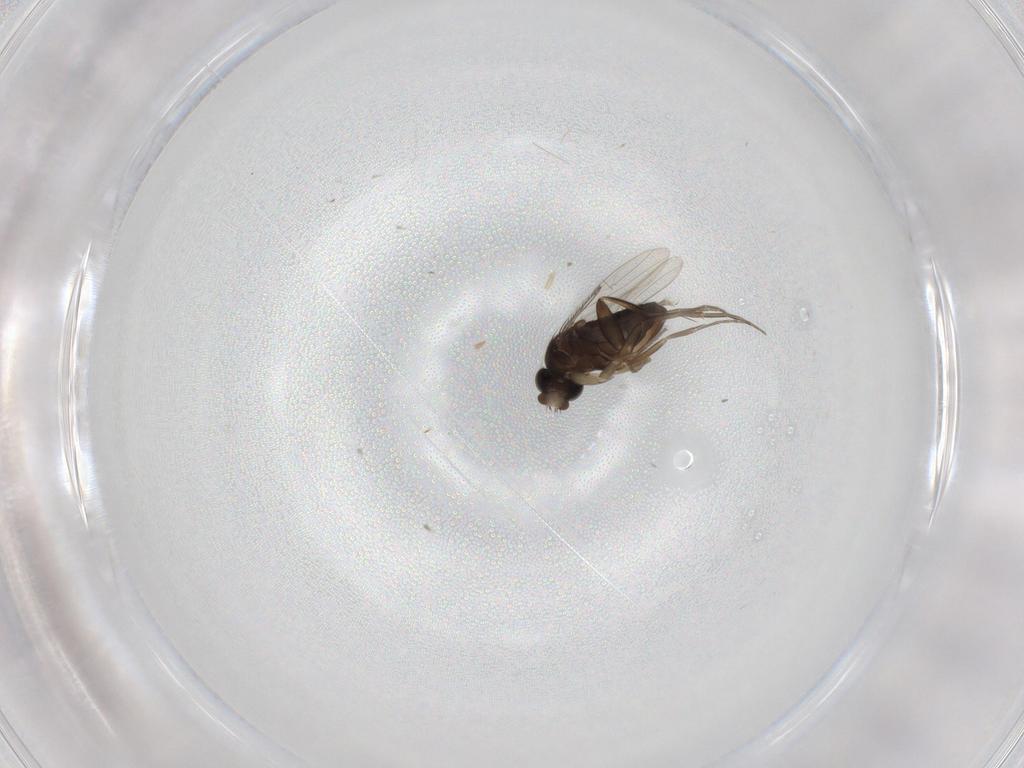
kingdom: Animalia
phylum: Arthropoda
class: Insecta
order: Diptera
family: Phoridae
